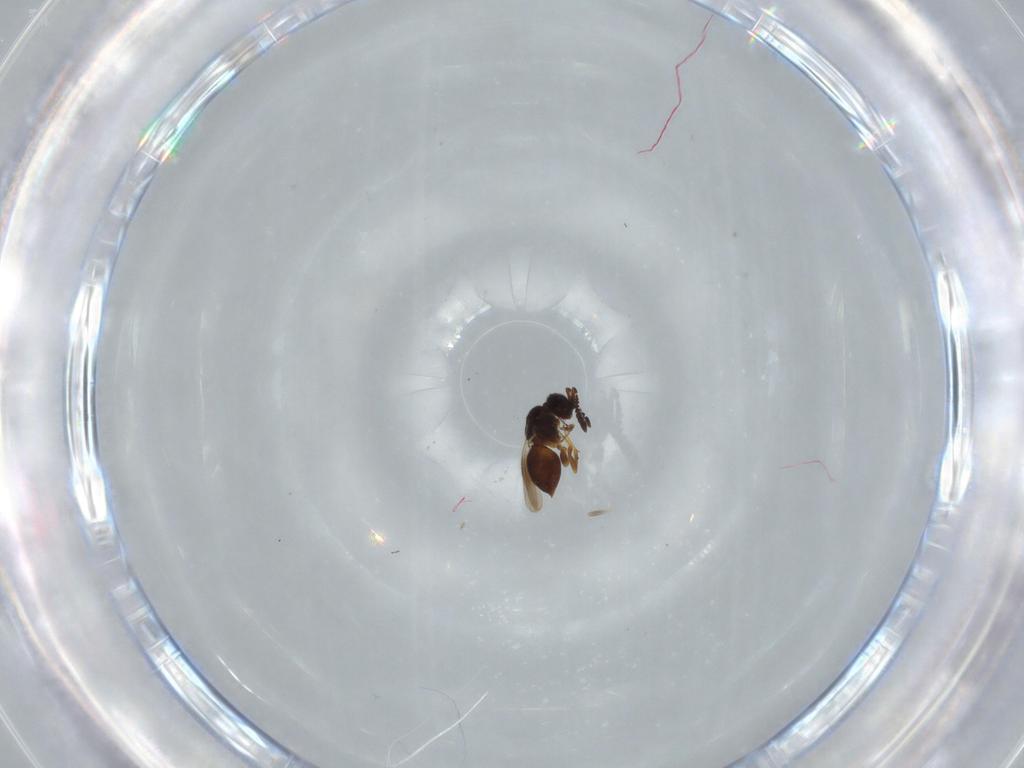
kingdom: Animalia
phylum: Arthropoda
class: Insecta
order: Hymenoptera
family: Ceraphronidae
